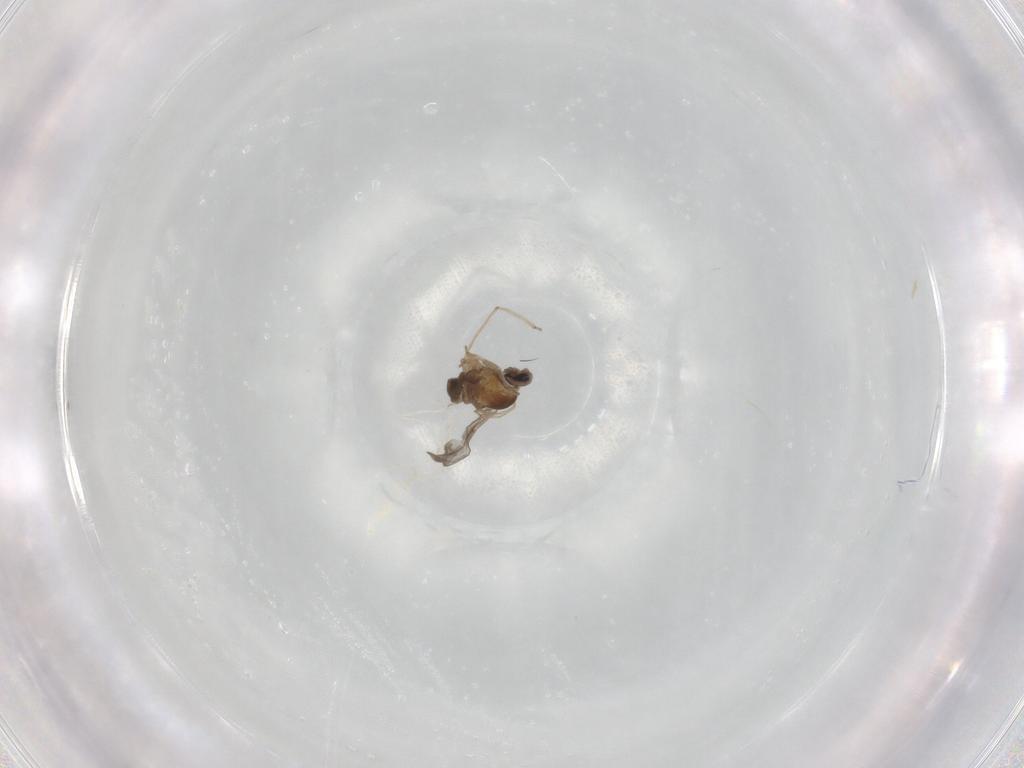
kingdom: Animalia
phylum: Arthropoda
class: Insecta
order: Diptera
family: Cecidomyiidae
